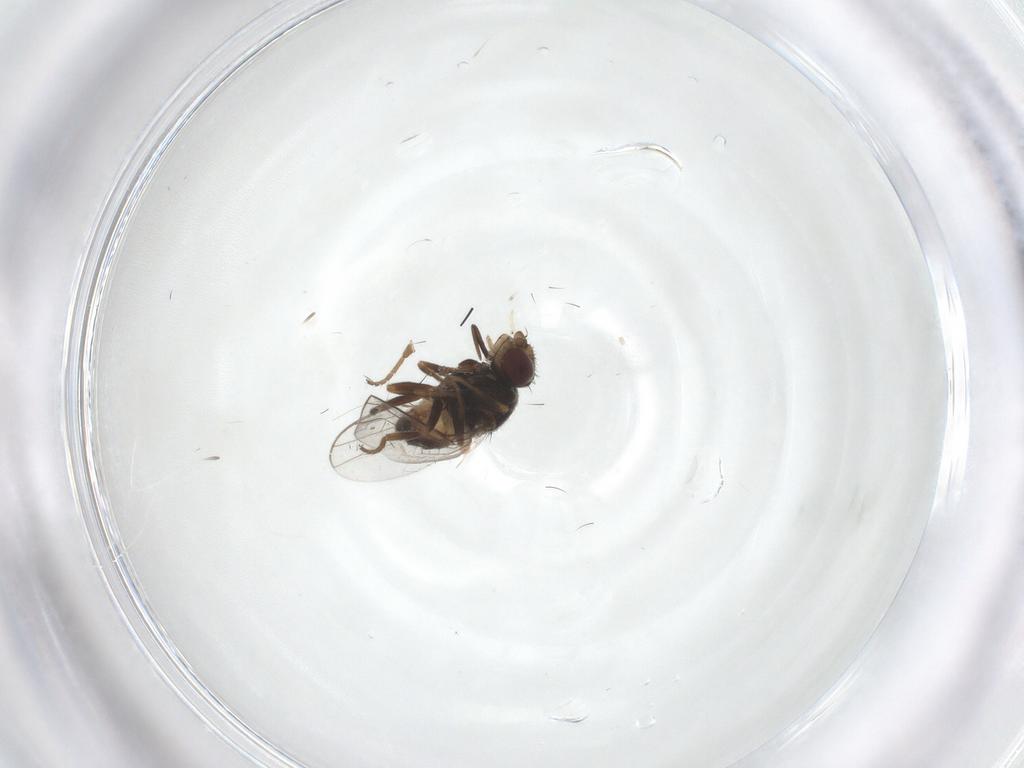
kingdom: Animalia
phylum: Arthropoda
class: Insecta
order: Diptera
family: Chloropidae
